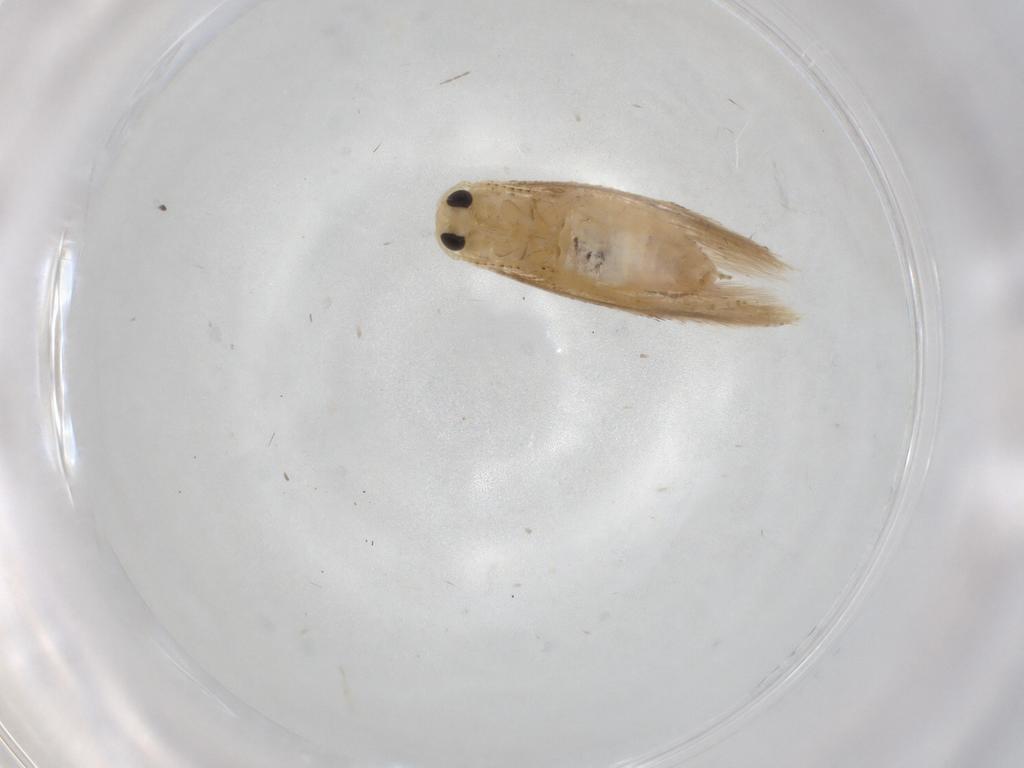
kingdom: Animalia
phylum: Arthropoda
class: Insecta
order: Lepidoptera
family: Bucculatricidae
